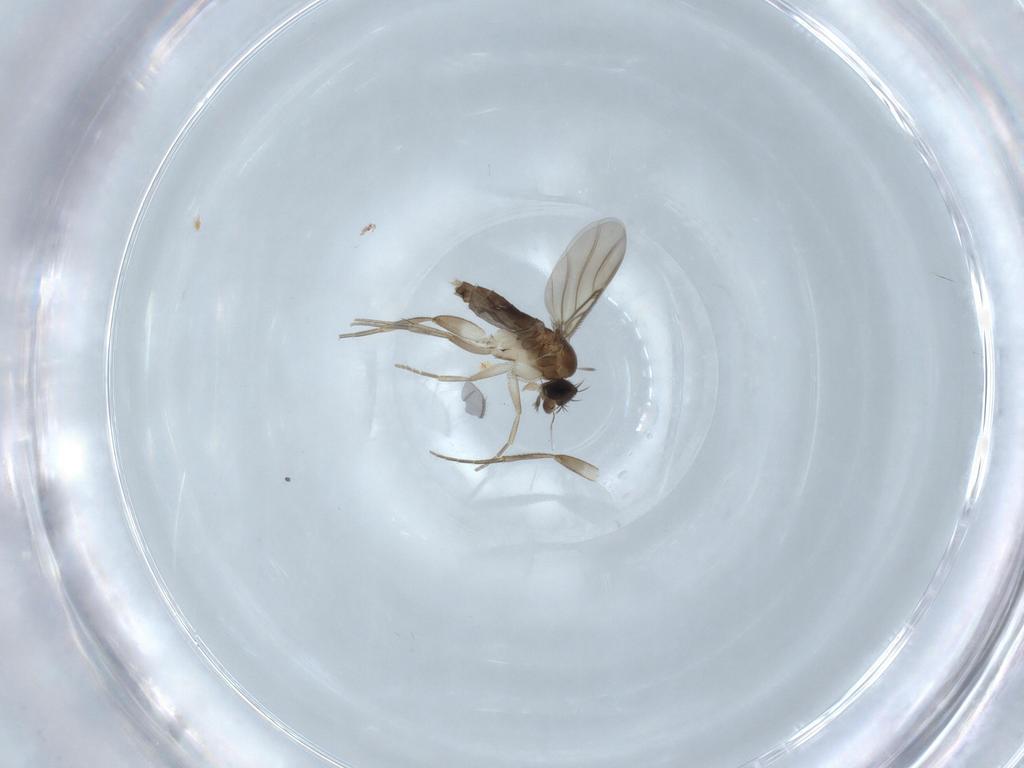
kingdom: Animalia
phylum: Arthropoda
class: Insecta
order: Diptera
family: Phoridae
